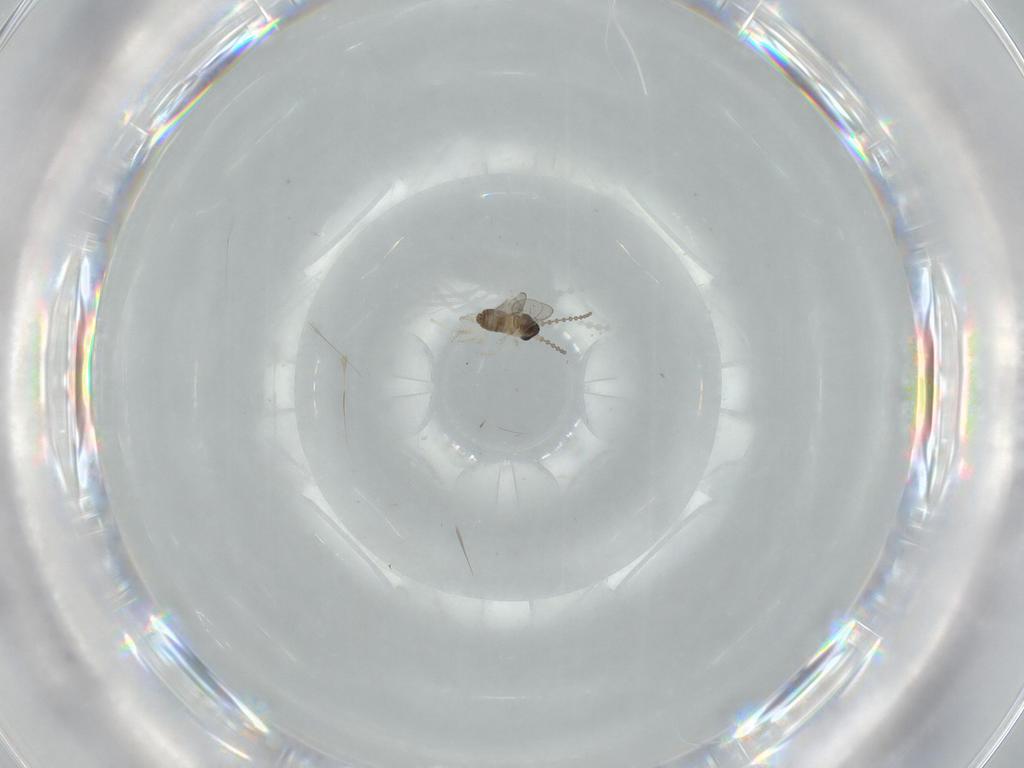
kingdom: Animalia
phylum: Arthropoda
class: Insecta
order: Diptera
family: Cecidomyiidae
